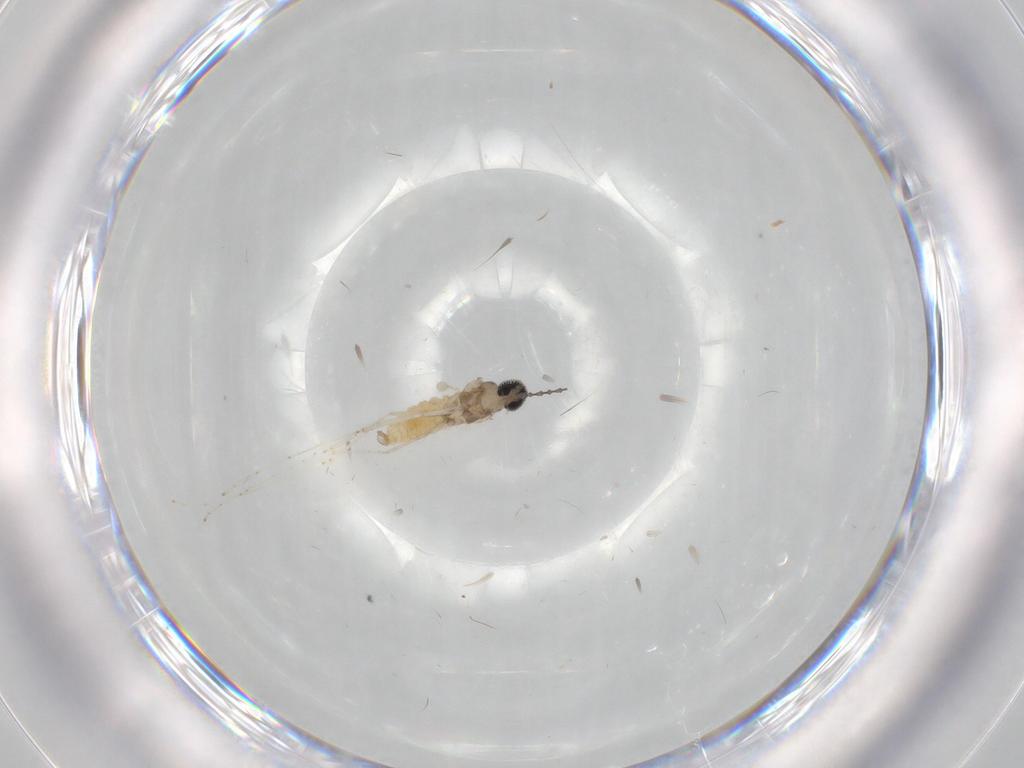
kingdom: Animalia
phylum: Arthropoda
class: Insecta
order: Diptera
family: Cecidomyiidae
